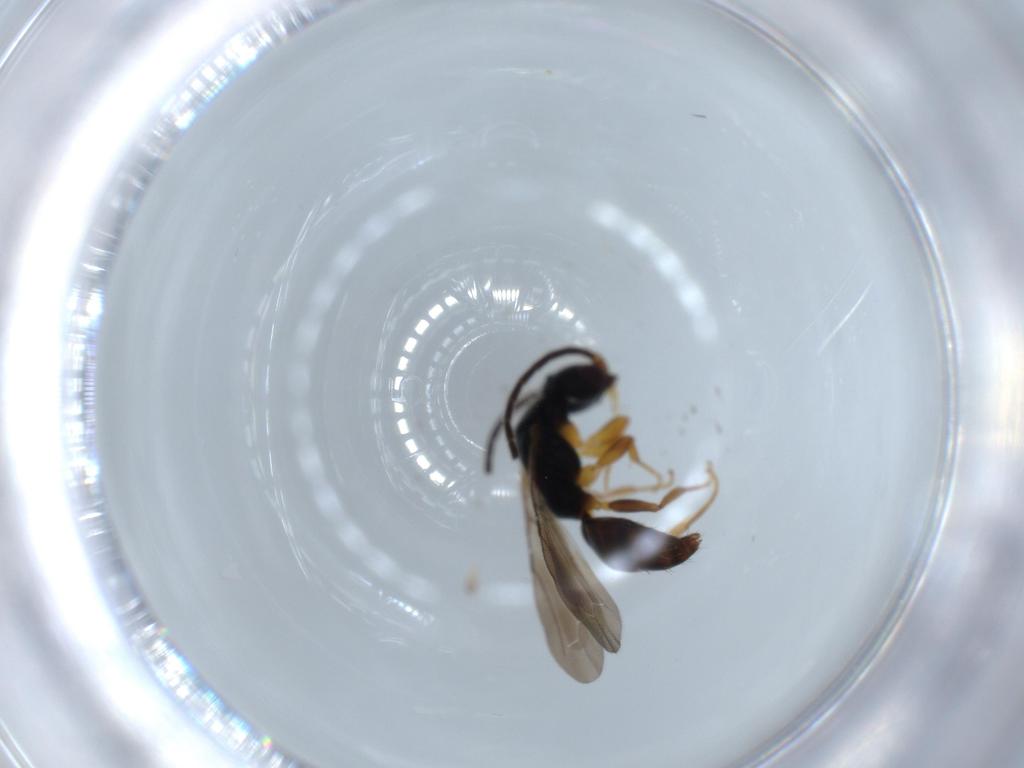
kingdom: Animalia
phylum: Arthropoda
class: Insecta
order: Hymenoptera
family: Bethylidae
